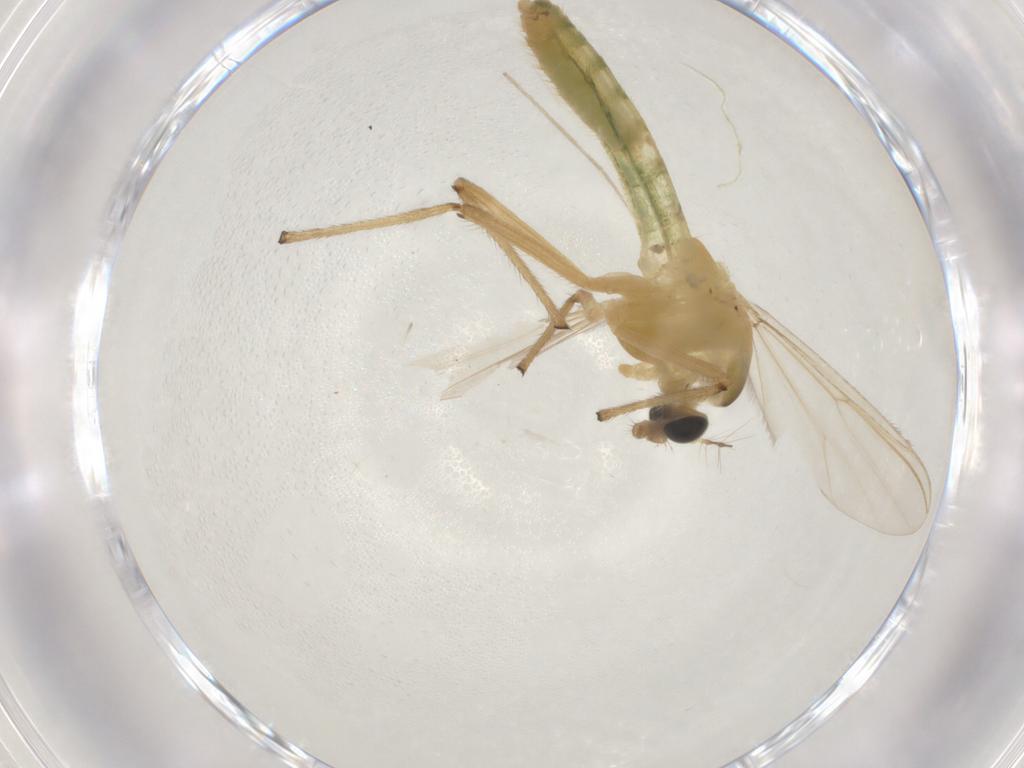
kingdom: Animalia
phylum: Arthropoda
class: Insecta
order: Diptera
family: Chironomidae
